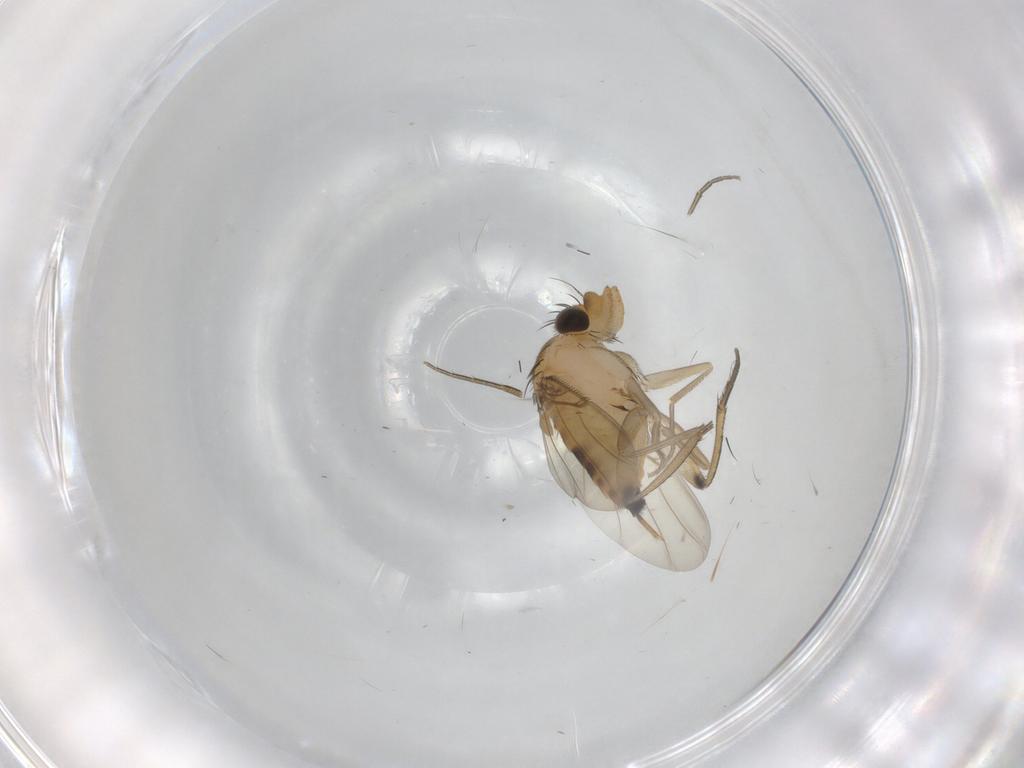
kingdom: Animalia
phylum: Arthropoda
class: Insecta
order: Diptera
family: Phoridae
